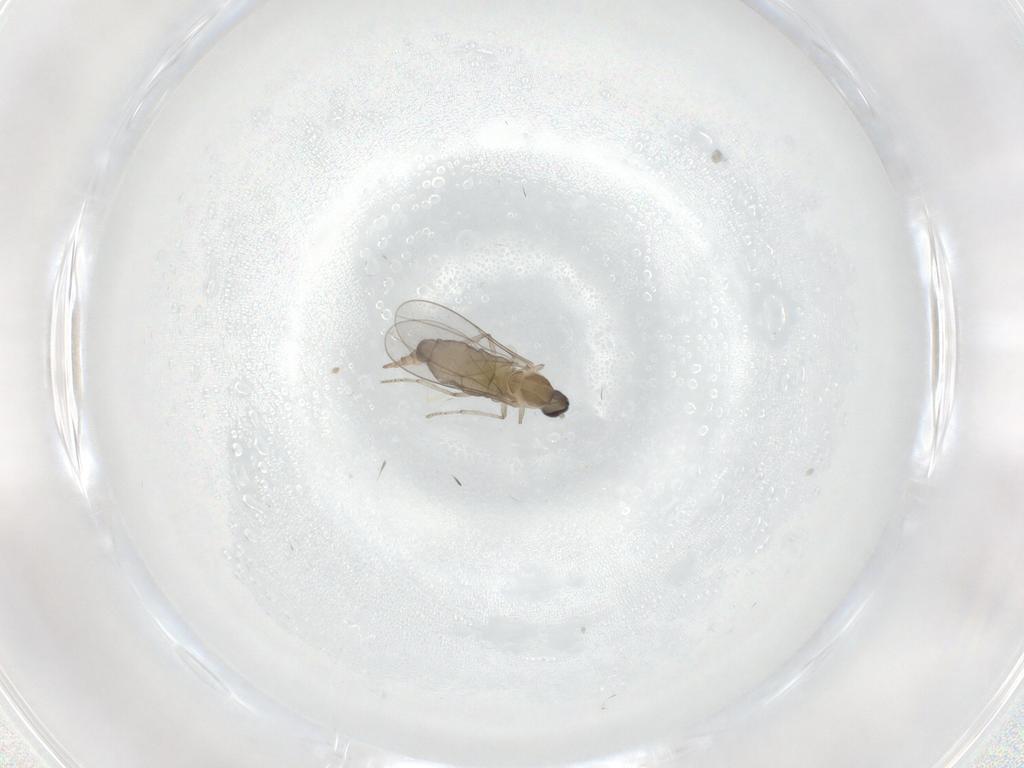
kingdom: Animalia
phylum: Arthropoda
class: Insecta
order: Diptera
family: Cecidomyiidae
